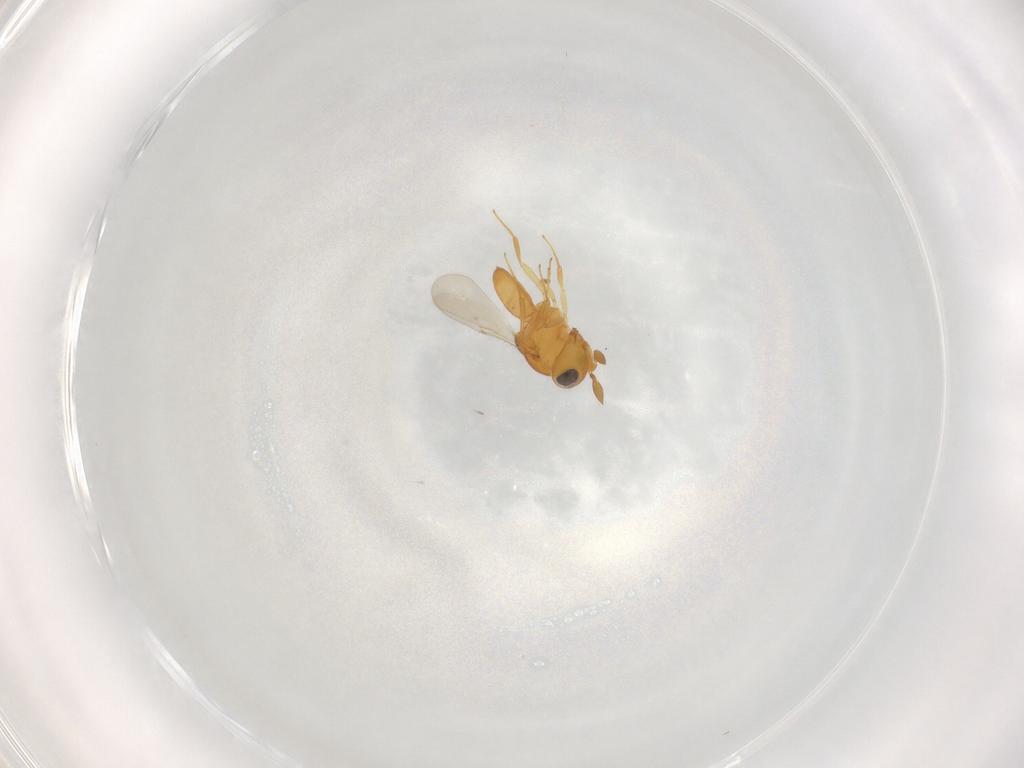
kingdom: Animalia
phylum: Arthropoda
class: Insecta
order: Hymenoptera
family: Scelionidae
